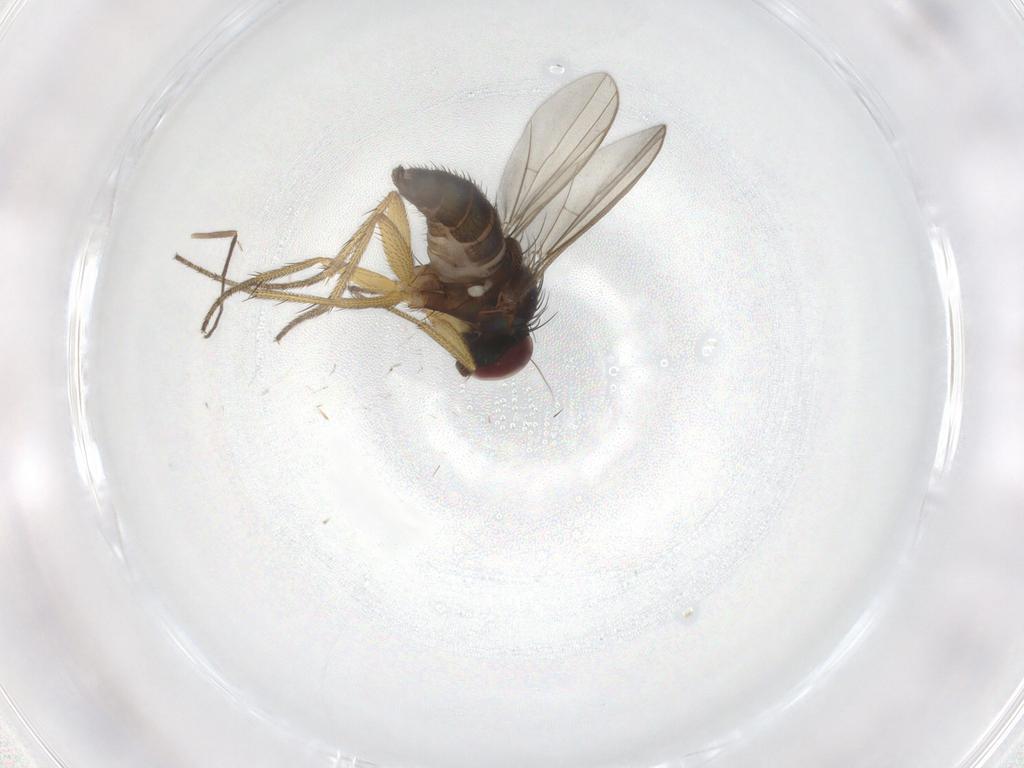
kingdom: Animalia
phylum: Arthropoda
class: Insecta
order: Diptera
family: Chironomidae
